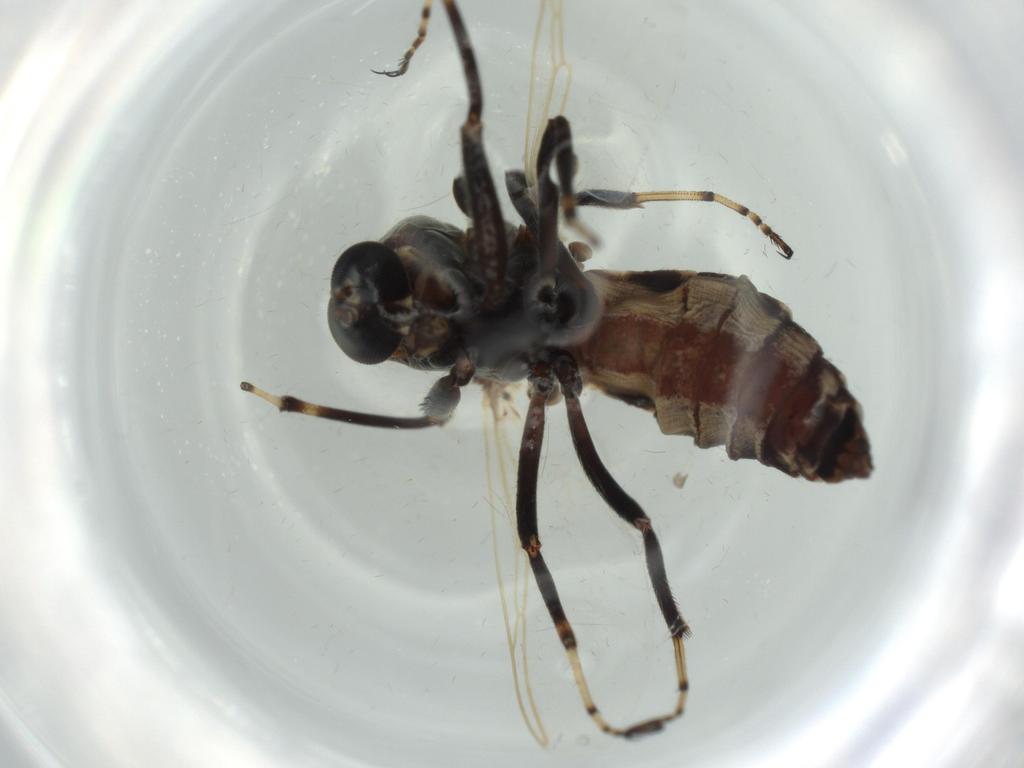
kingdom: Animalia
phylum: Arthropoda
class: Insecta
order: Diptera
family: Ceratopogonidae
